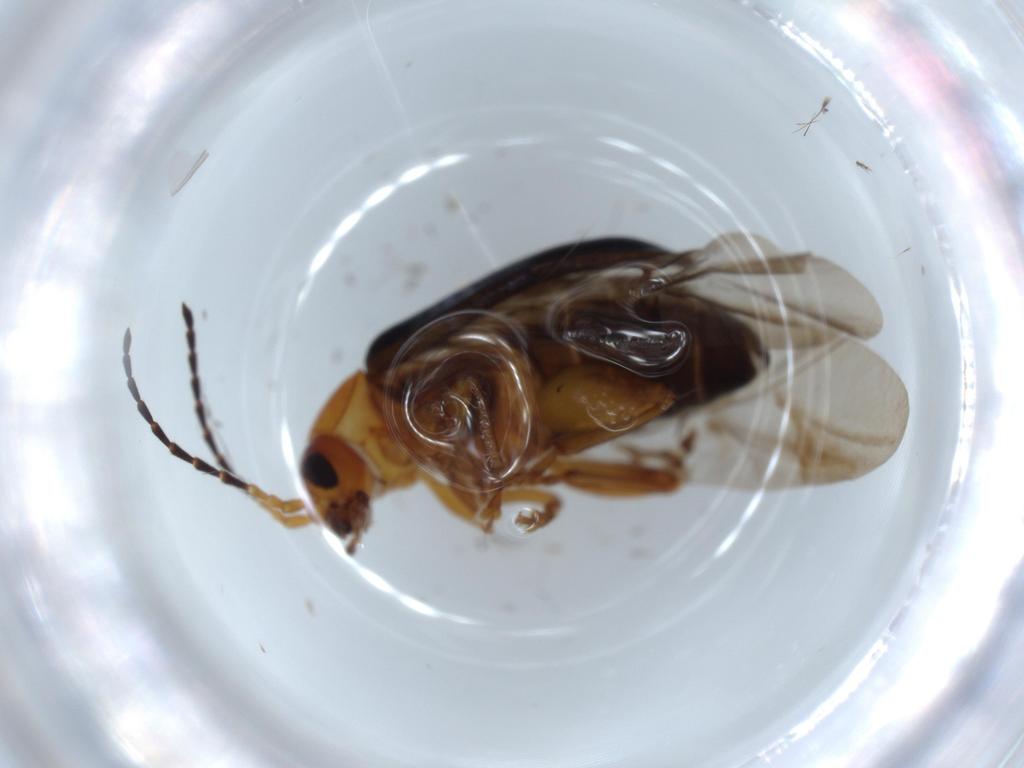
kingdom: Animalia
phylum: Arthropoda
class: Insecta
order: Coleoptera
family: Chrysomelidae
